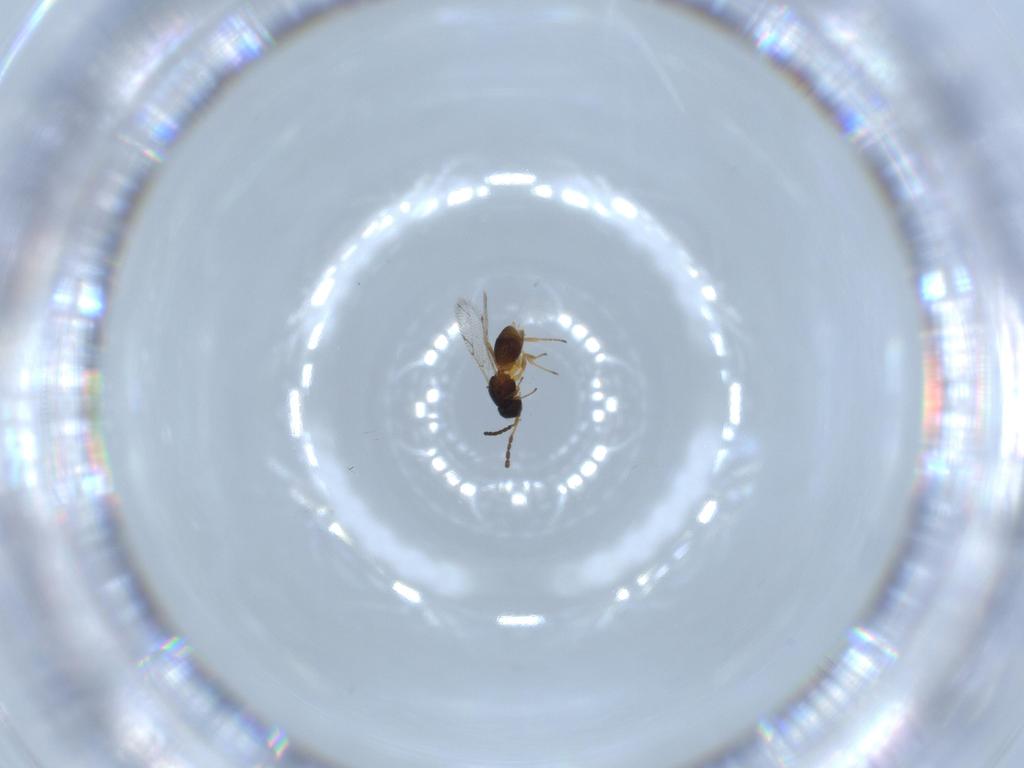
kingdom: Animalia
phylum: Arthropoda
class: Insecta
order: Hymenoptera
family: Figitidae
